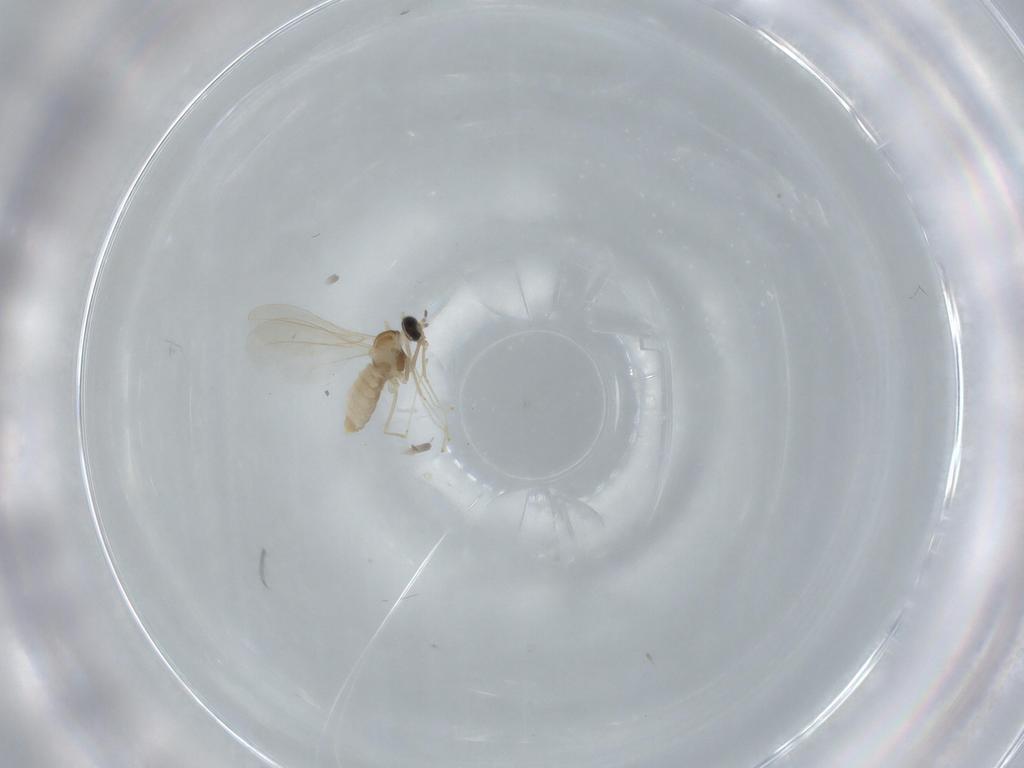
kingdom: Animalia
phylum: Arthropoda
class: Insecta
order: Diptera
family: Cecidomyiidae
